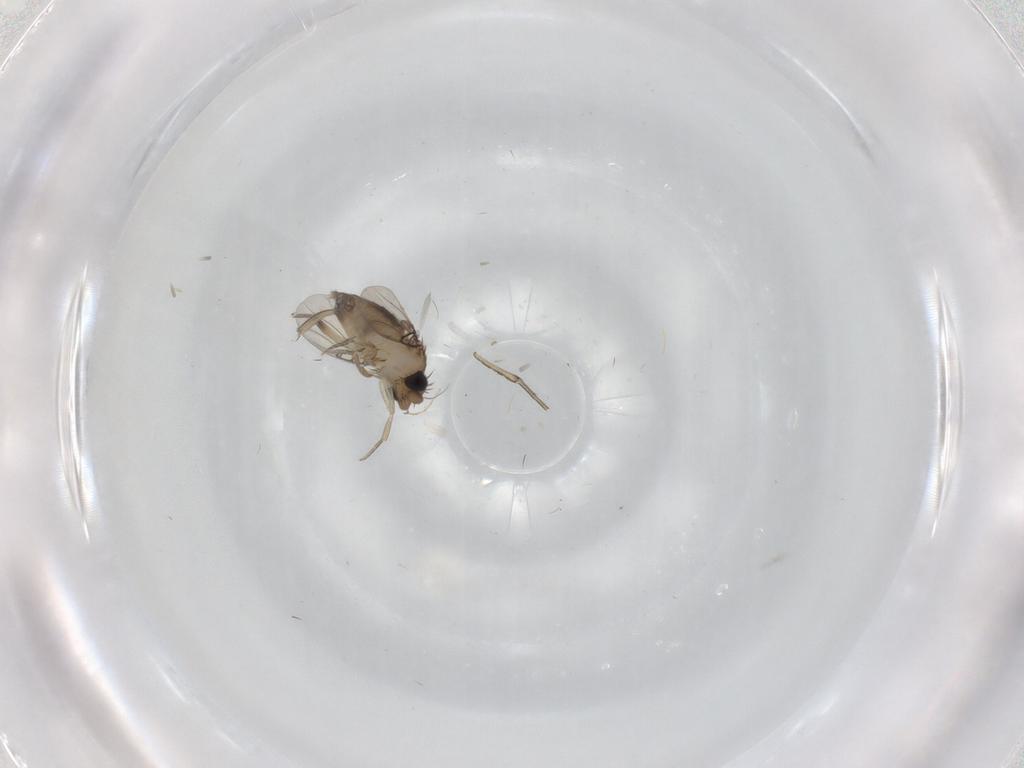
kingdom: Animalia
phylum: Arthropoda
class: Insecta
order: Diptera
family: Phoridae
